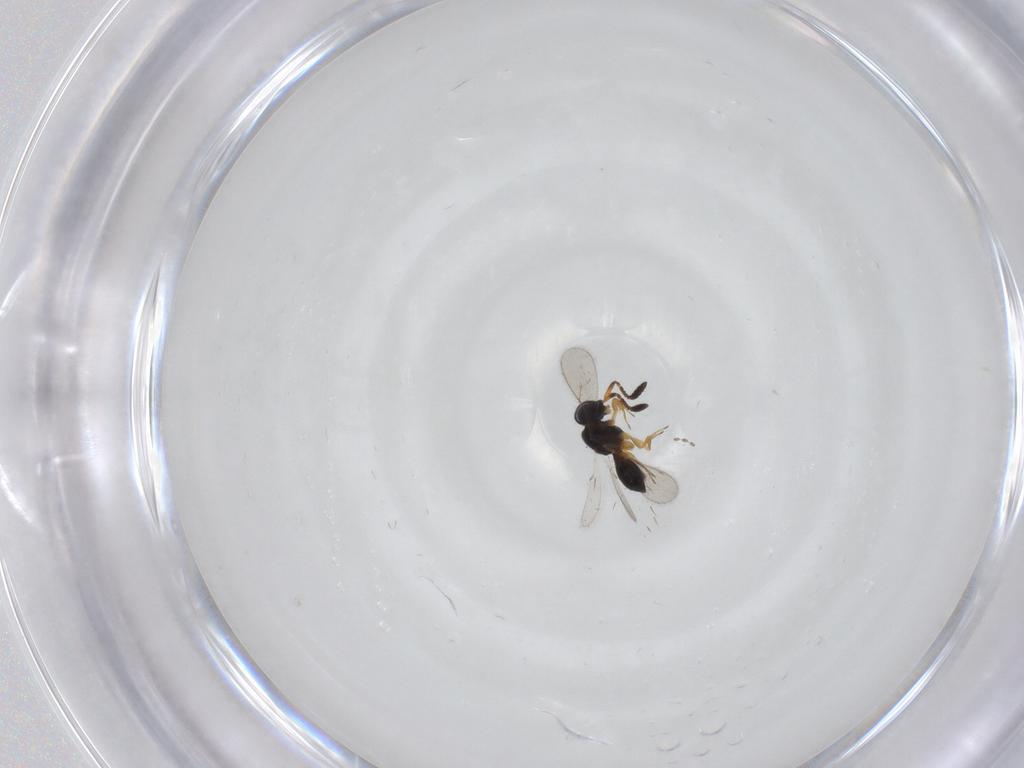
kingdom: Animalia
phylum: Arthropoda
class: Insecta
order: Hymenoptera
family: Scelionidae
